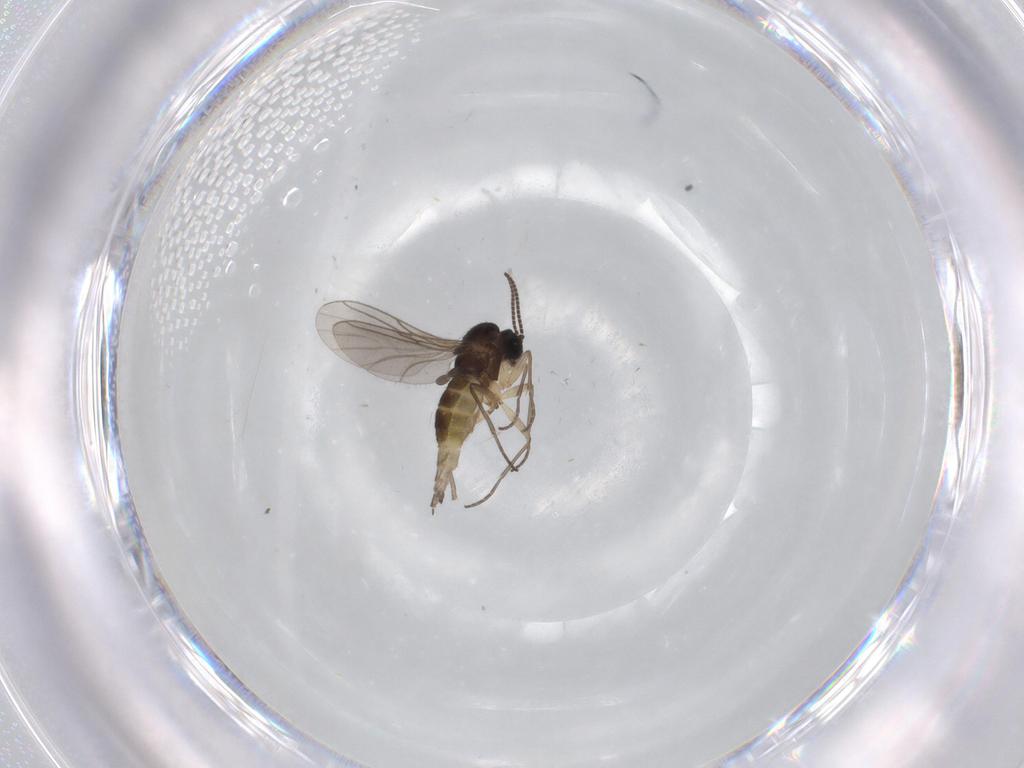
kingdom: Animalia
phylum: Arthropoda
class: Insecta
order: Diptera
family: Sciaridae
